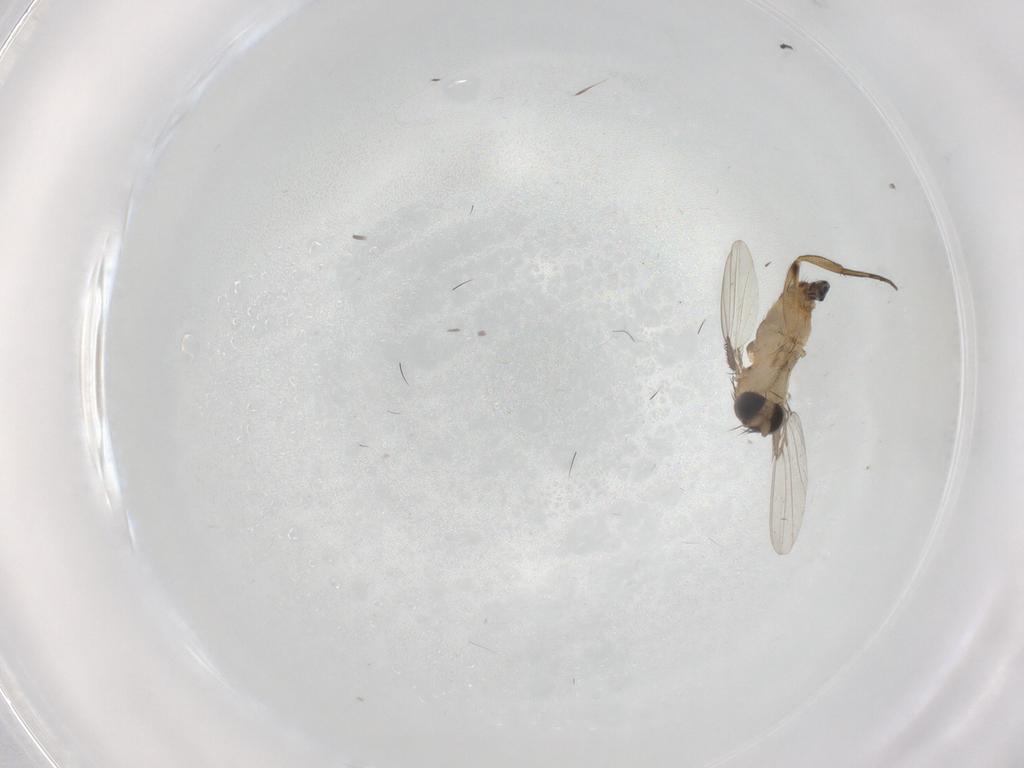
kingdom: Animalia
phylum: Arthropoda
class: Insecta
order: Diptera
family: Phoridae
